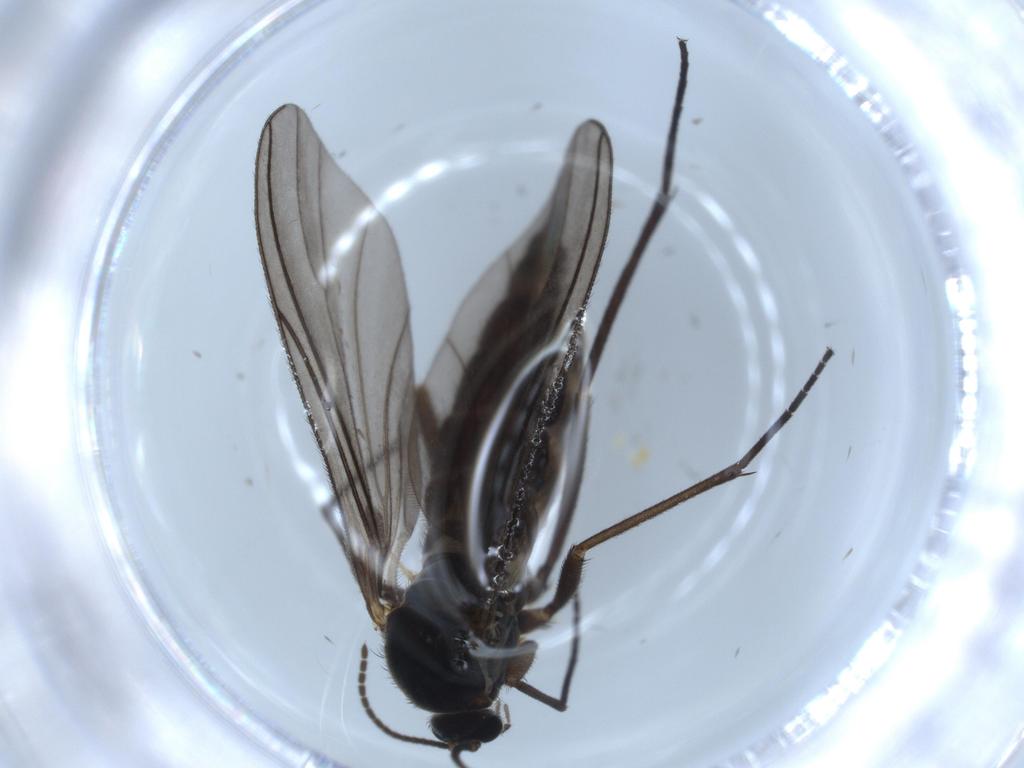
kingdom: Animalia
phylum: Arthropoda
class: Insecta
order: Diptera
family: Sciaridae
